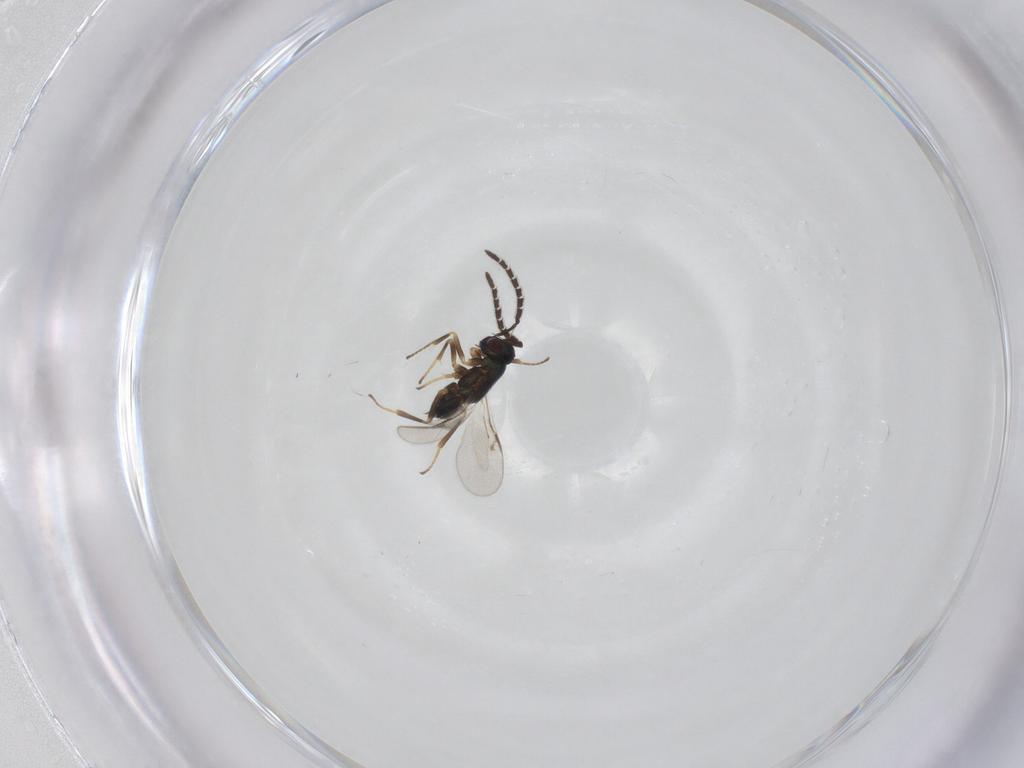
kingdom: Animalia
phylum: Arthropoda
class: Insecta
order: Hymenoptera
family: Encyrtidae
